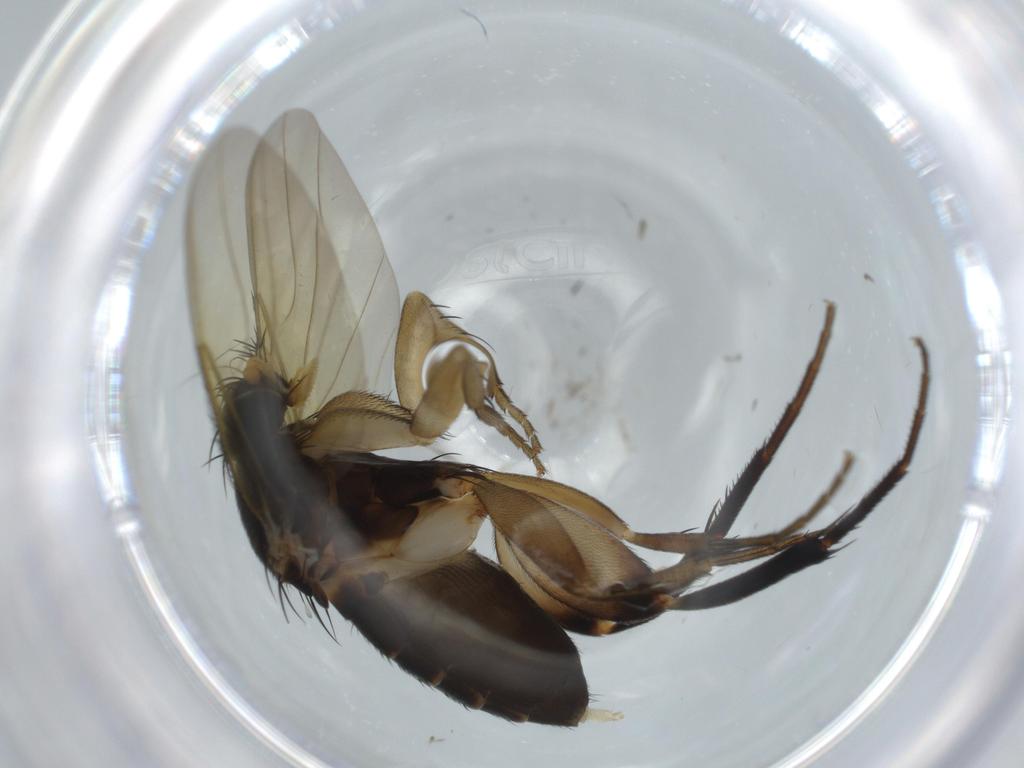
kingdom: Animalia
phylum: Arthropoda
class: Insecta
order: Diptera
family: Phoridae
